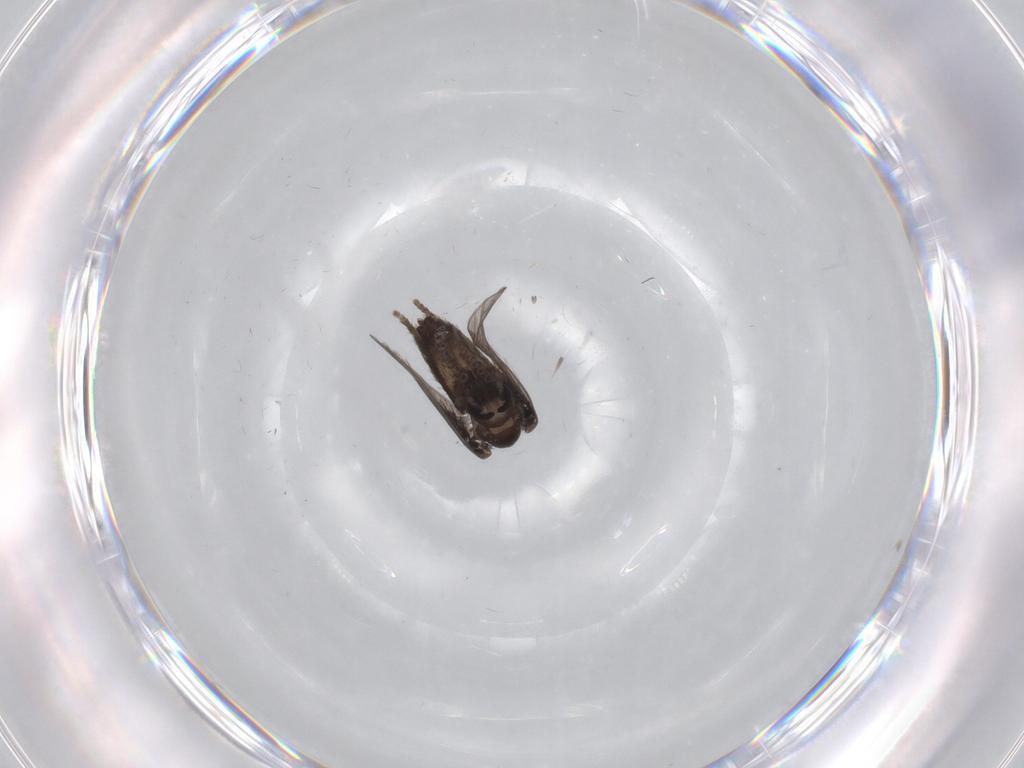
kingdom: Animalia
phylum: Arthropoda
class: Insecta
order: Diptera
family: Psychodidae
